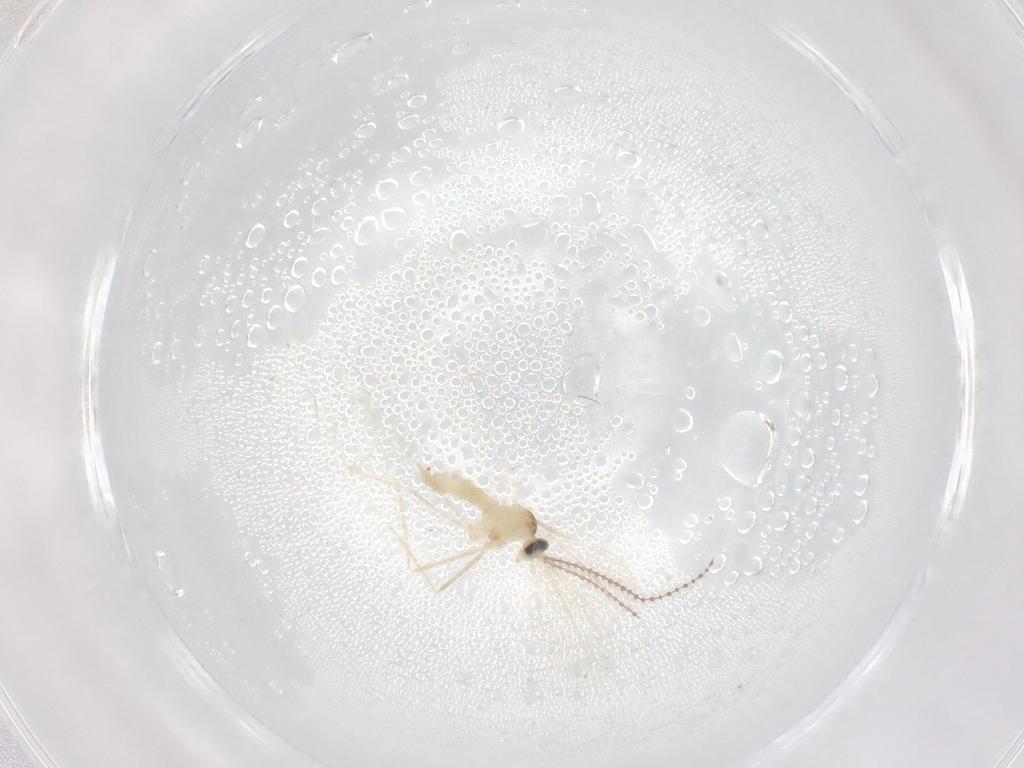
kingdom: Animalia
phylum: Arthropoda
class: Insecta
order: Diptera
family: Cecidomyiidae
